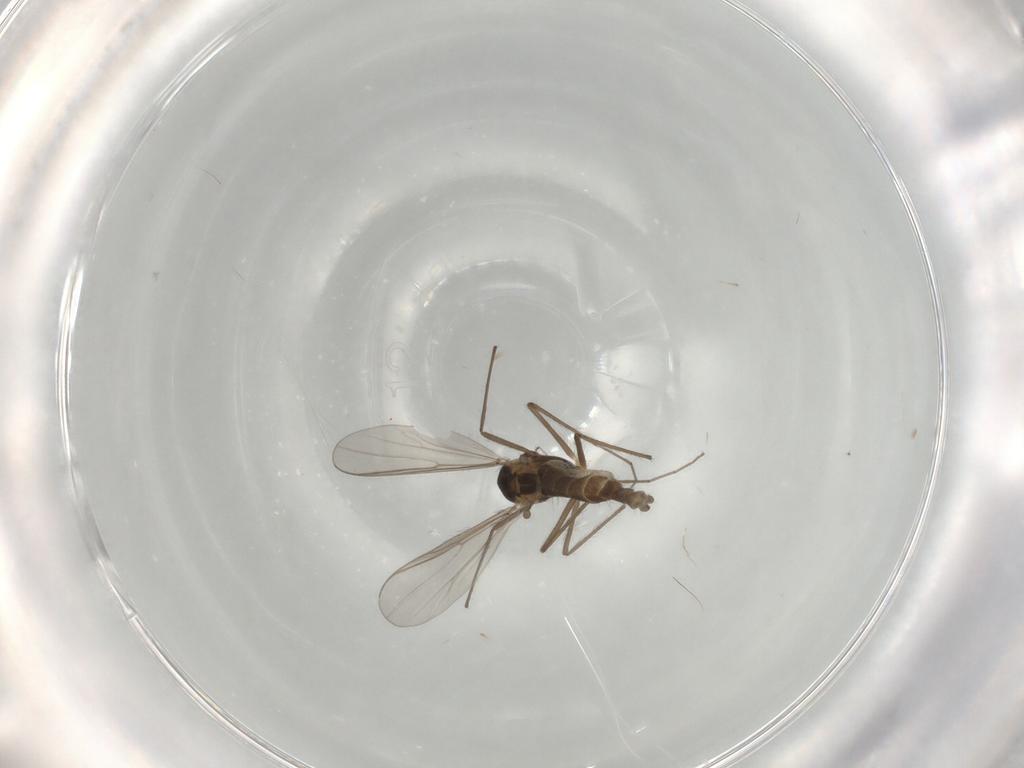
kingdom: Animalia
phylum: Arthropoda
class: Insecta
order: Diptera
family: Chironomidae
